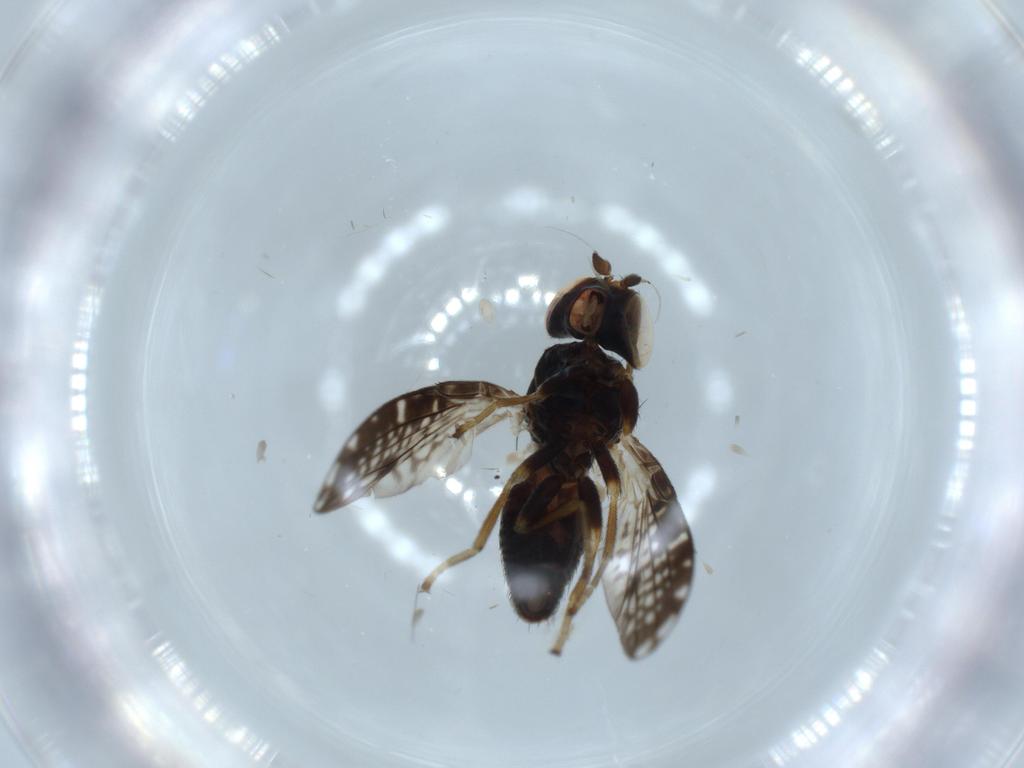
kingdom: Animalia
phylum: Arthropoda
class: Insecta
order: Diptera
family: Chamaemyiidae
